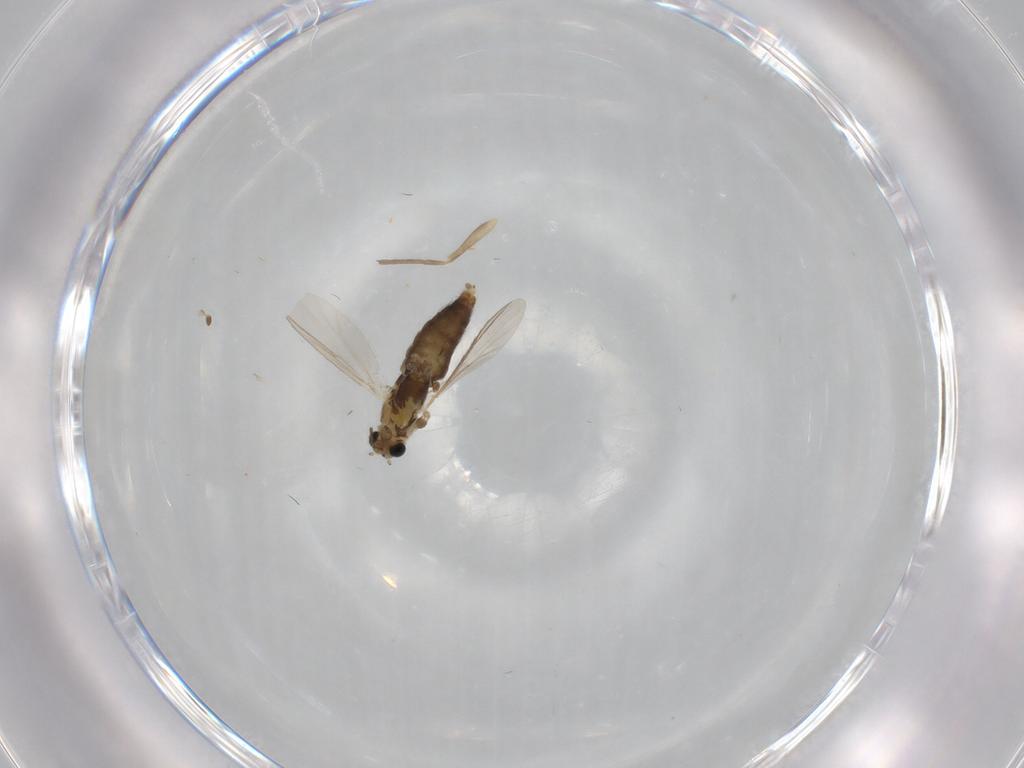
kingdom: Animalia
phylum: Arthropoda
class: Insecta
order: Diptera
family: Chironomidae
